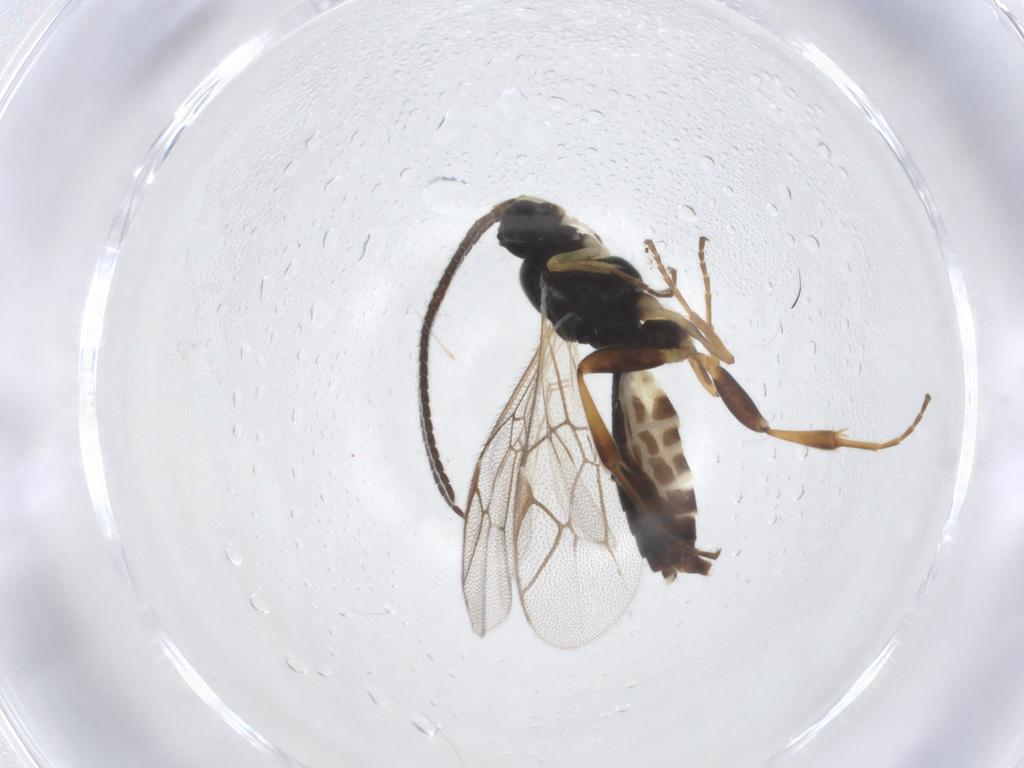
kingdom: Animalia
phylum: Arthropoda
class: Insecta
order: Hymenoptera
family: Ichneumonidae
